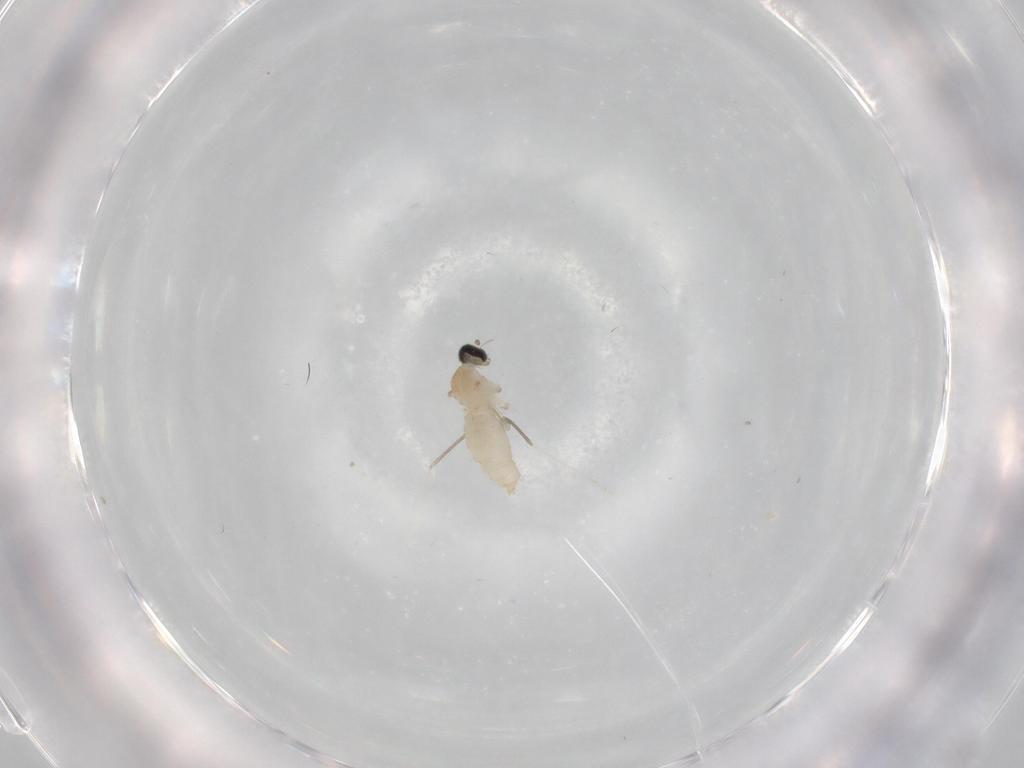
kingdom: Animalia
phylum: Arthropoda
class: Insecta
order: Diptera
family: Cecidomyiidae
